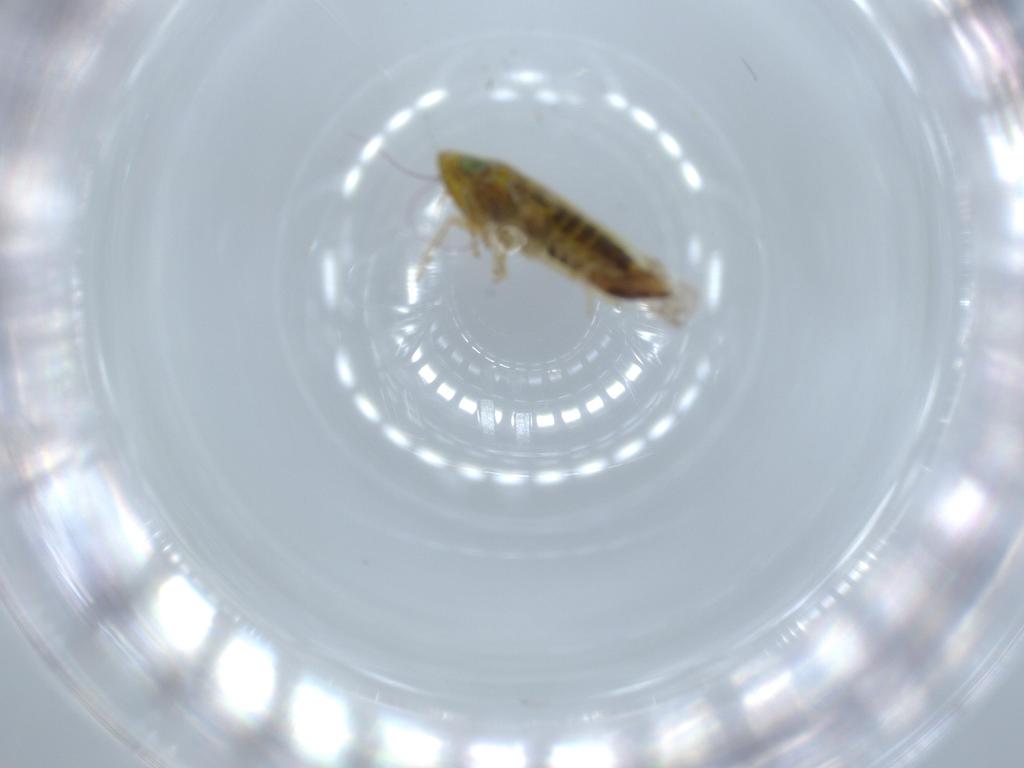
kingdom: Animalia
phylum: Arthropoda
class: Insecta
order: Hemiptera
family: Cicadellidae
